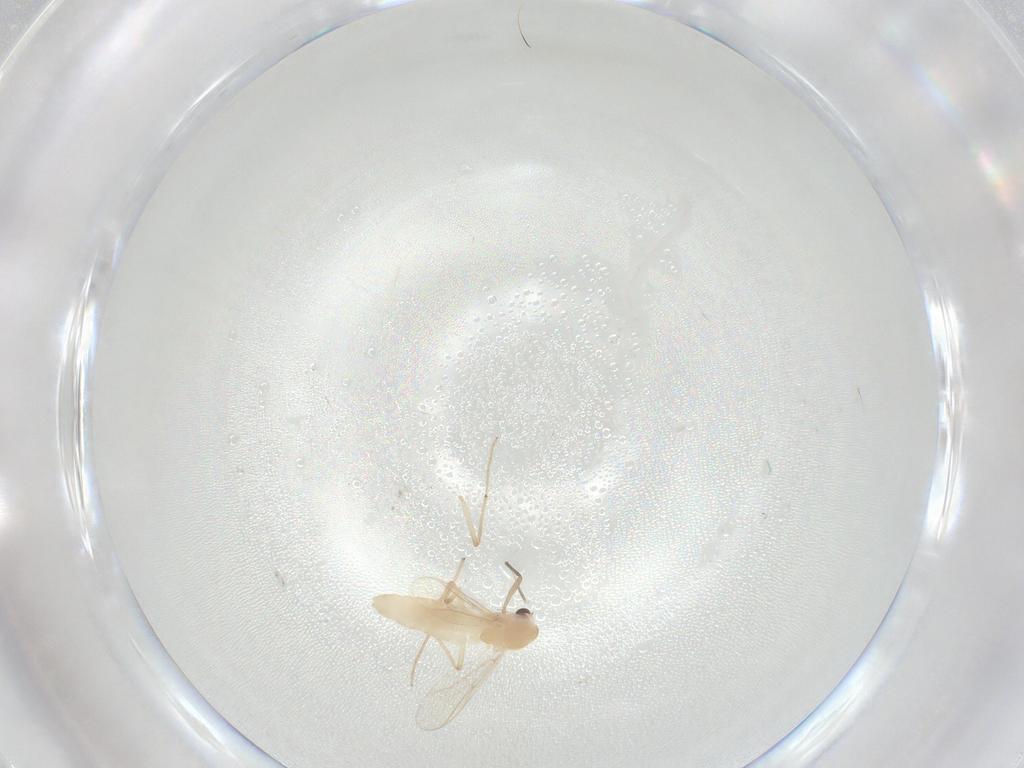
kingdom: Animalia
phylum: Arthropoda
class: Insecta
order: Diptera
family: Chironomidae
